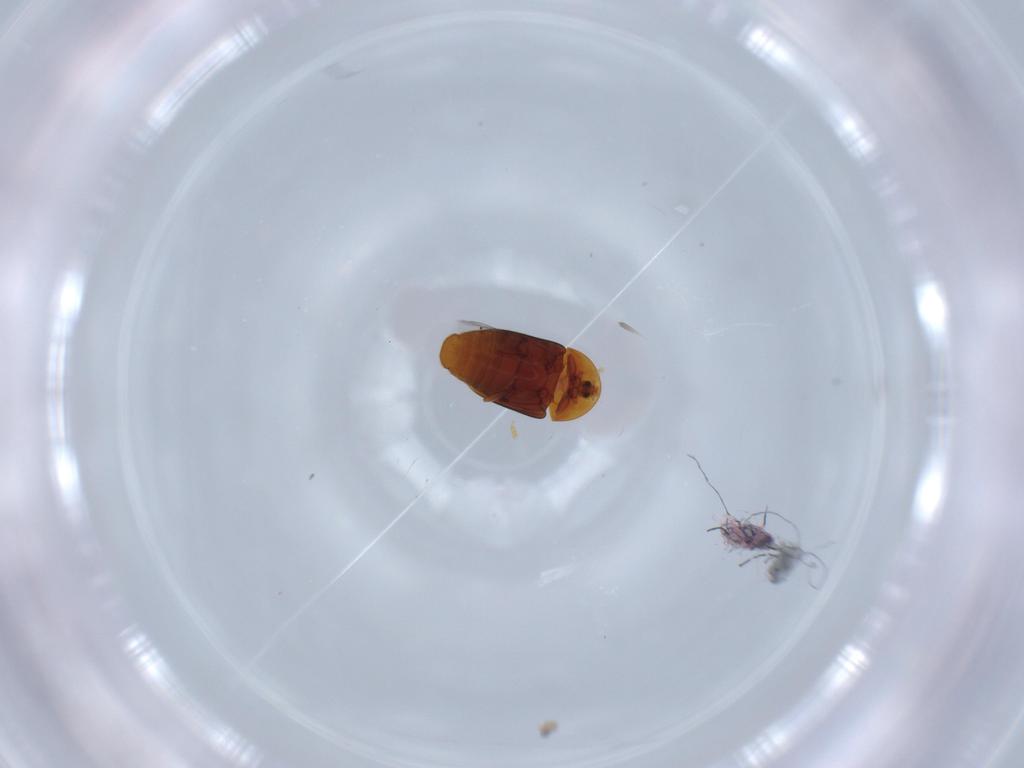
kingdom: Animalia
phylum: Arthropoda
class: Insecta
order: Coleoptera
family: Corylophidae
